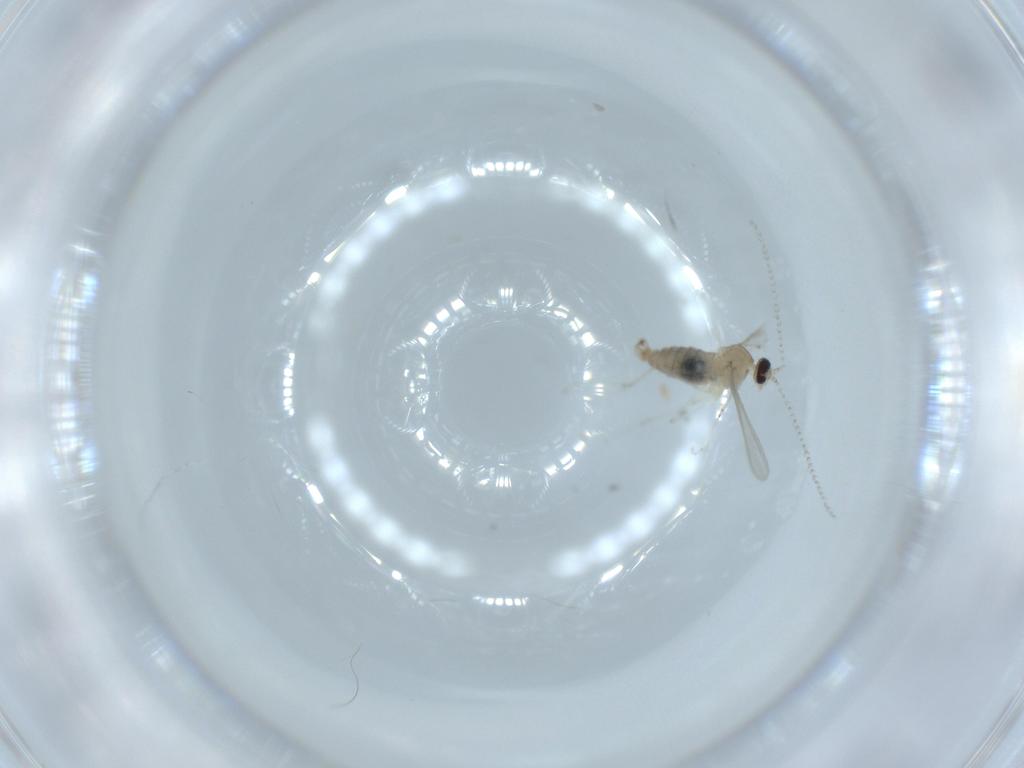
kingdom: Animalia
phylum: Arthropoda
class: Insecta
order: Diptera
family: Cecidomyiidae
